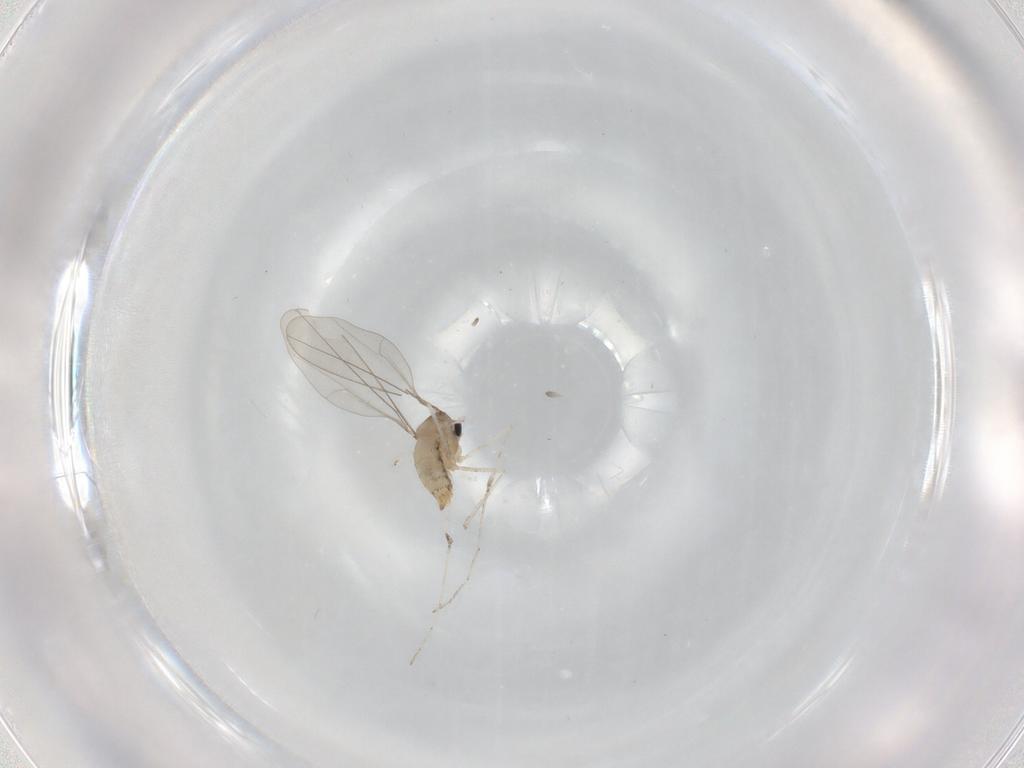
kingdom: Animalia
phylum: Arthropoda
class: Insecta
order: Diptera
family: Cecidomyiidae
